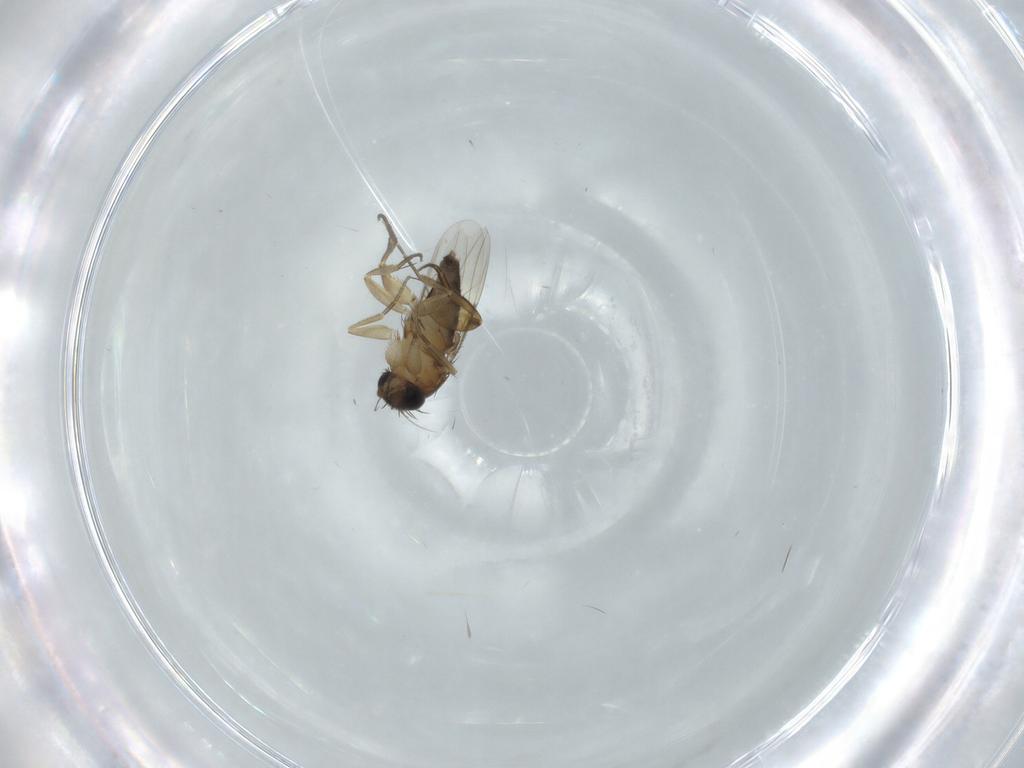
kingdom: Animalia
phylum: Arthropoda
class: Insecta
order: Diptera
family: Phoridae
